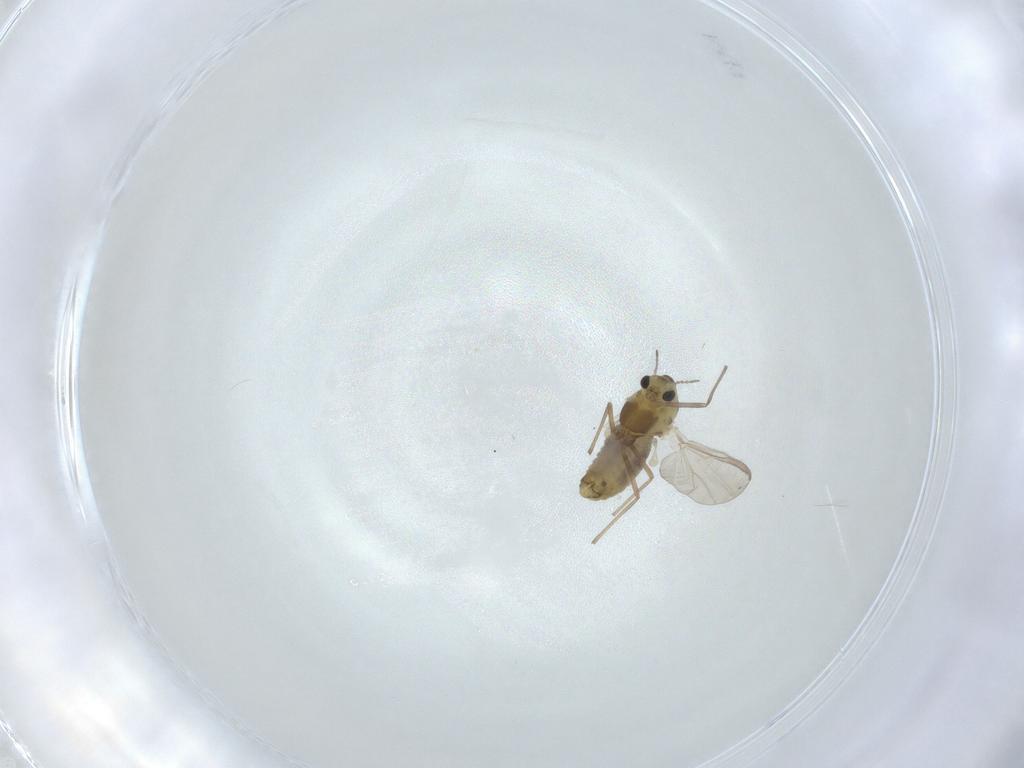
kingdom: Animalia
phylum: Arthropoda
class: Insecta
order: Diptera
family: Chironomidae
